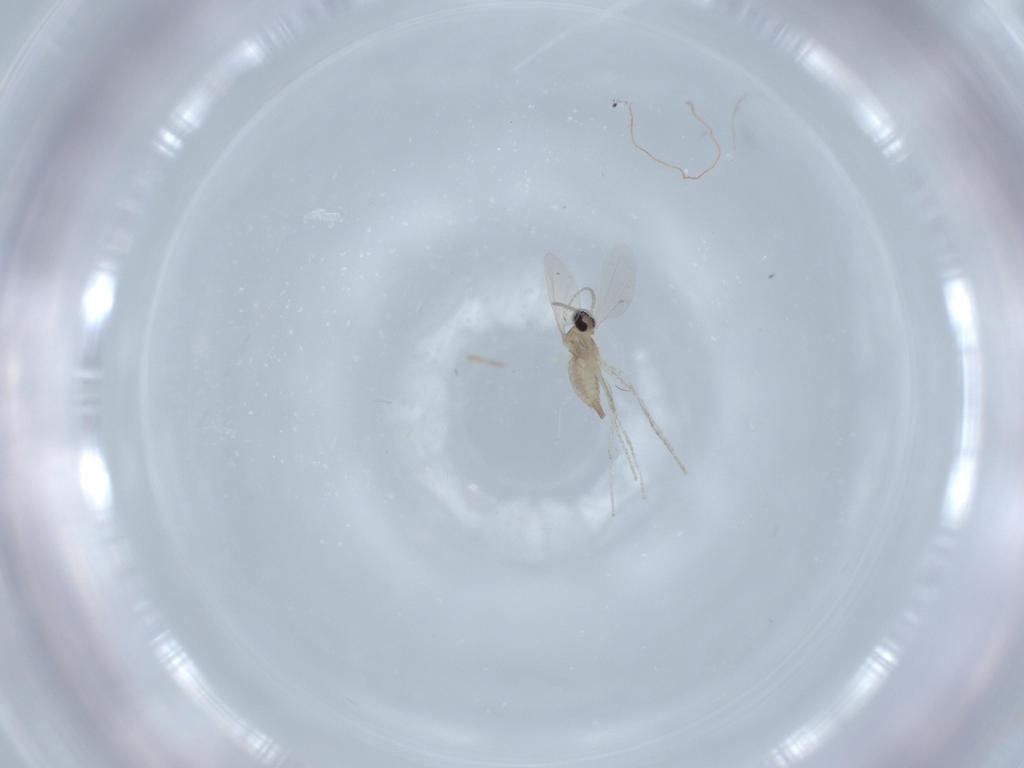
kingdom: Animalia
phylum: Arthropoda
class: Insecta
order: Diptera
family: Cecidomyiidae
